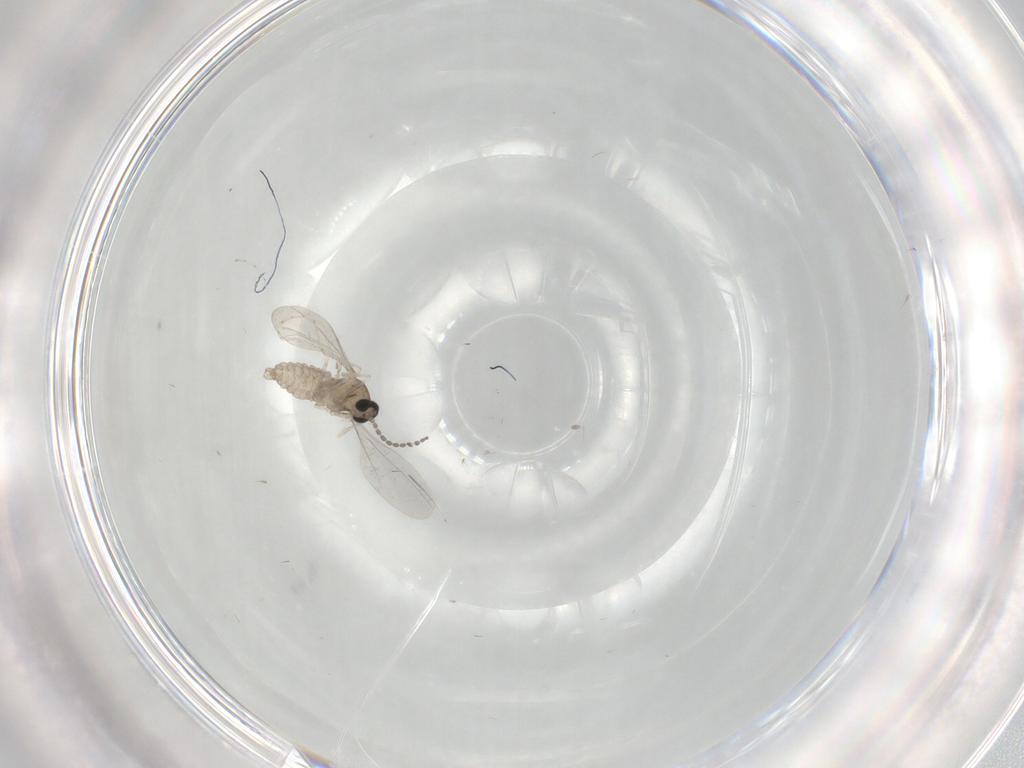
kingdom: Animalia
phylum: Arthropoda
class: Insecta
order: Diptera
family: Cecidomyiidae
